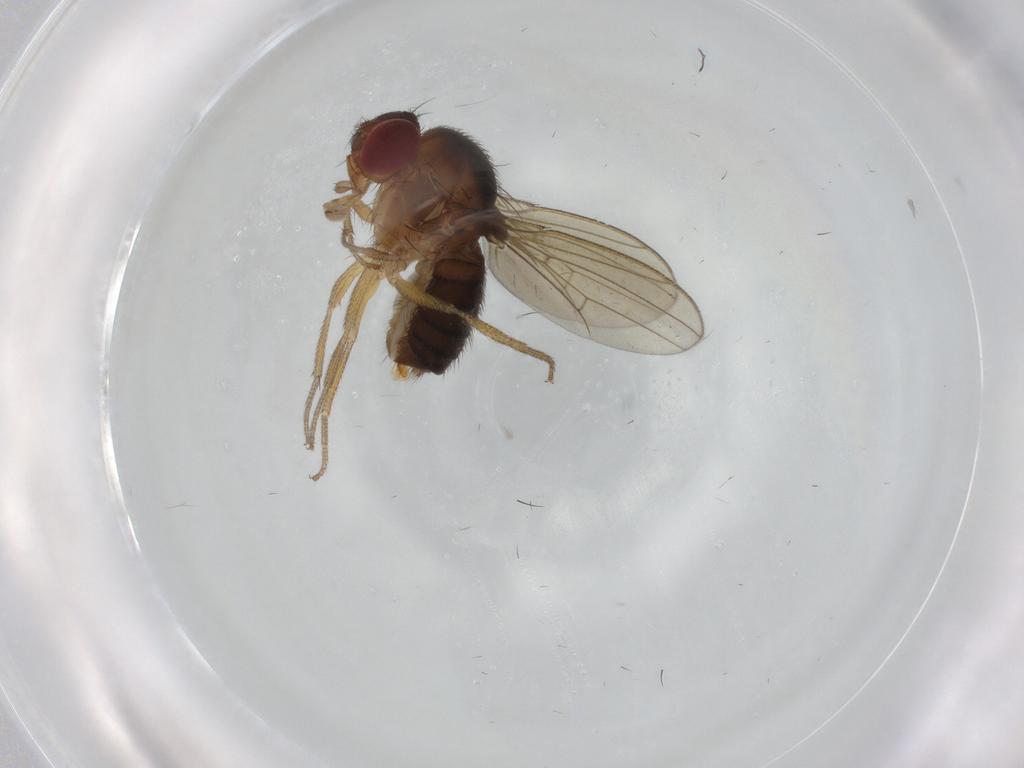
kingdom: Animalia
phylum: Arthropoda
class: Insecta
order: Diptera
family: Drosophilidae
